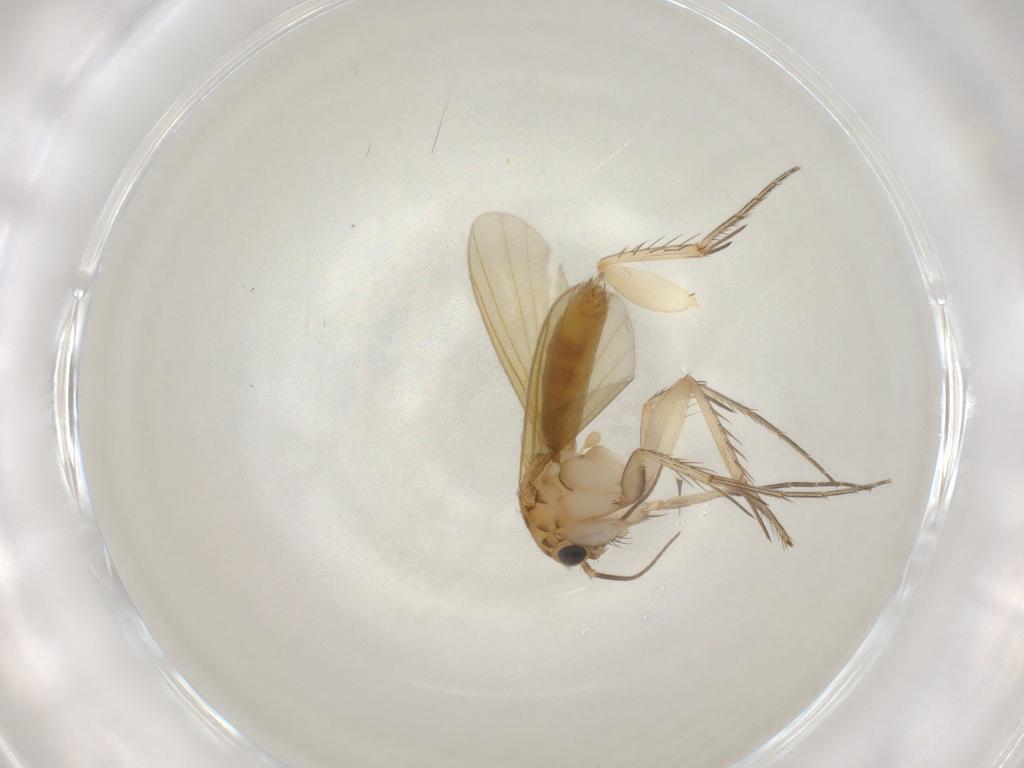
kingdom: Animalia
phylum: Arthropoda
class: Insecta
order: Diptera
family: Mycetophilidae
